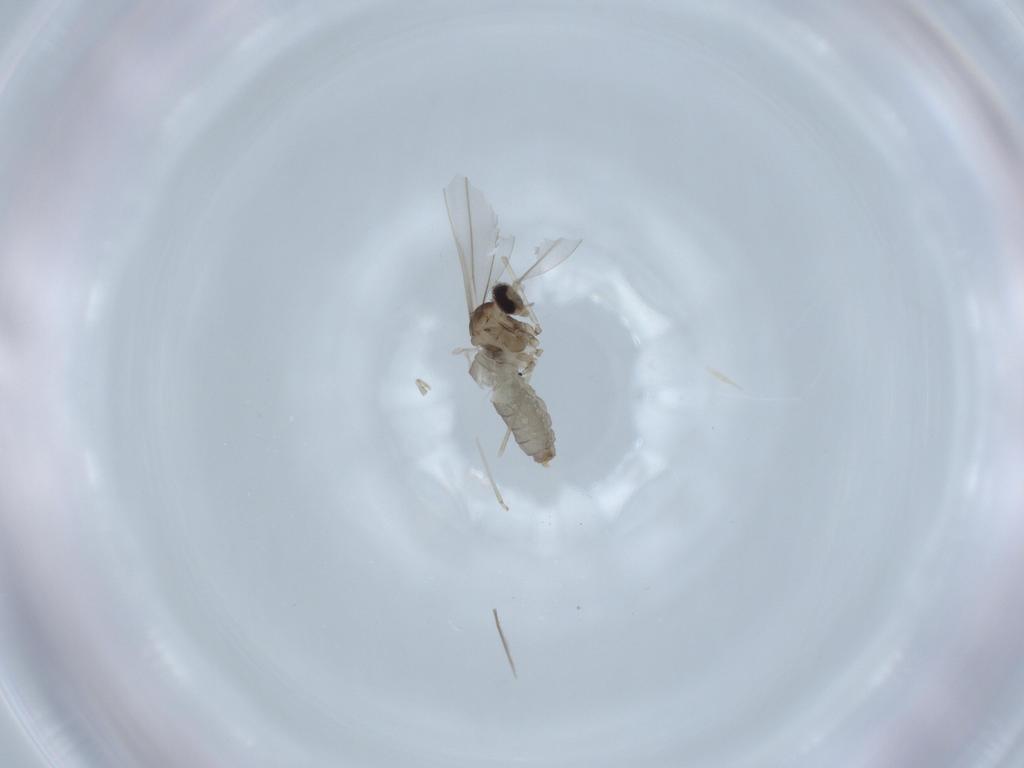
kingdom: Animalia
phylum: Arthropoda
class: Insecta
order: Diptera
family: Cecidomyiidae
